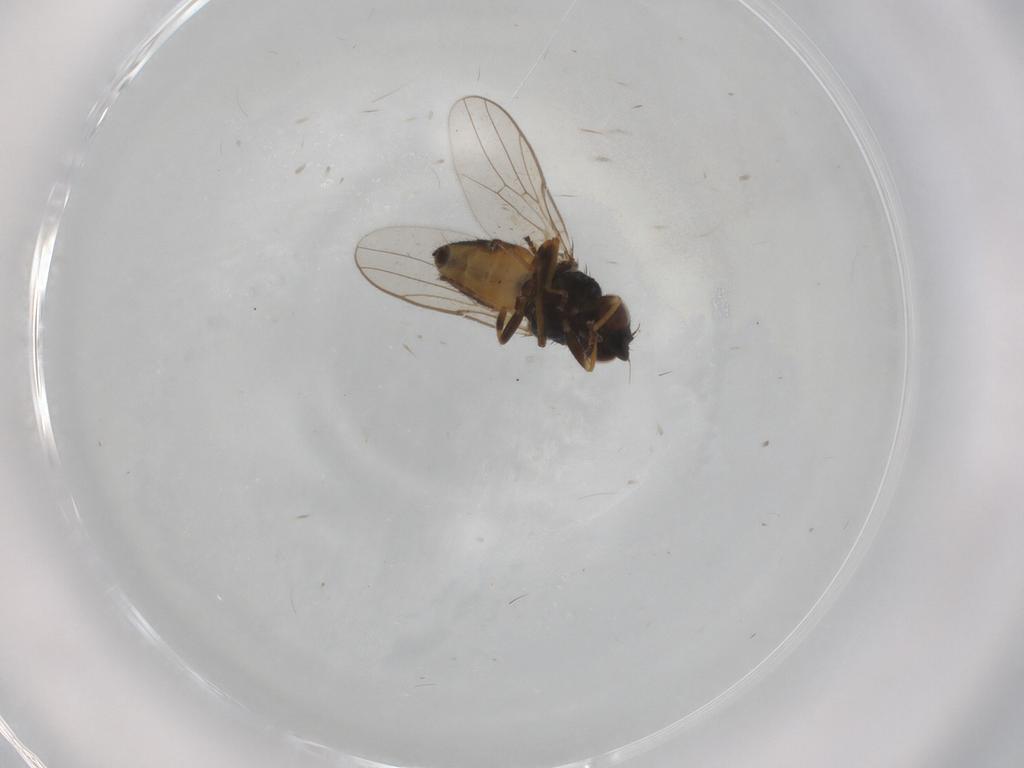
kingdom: Animalia
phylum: Arthropoda
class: Insecta
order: Diptera
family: Chloropidae
